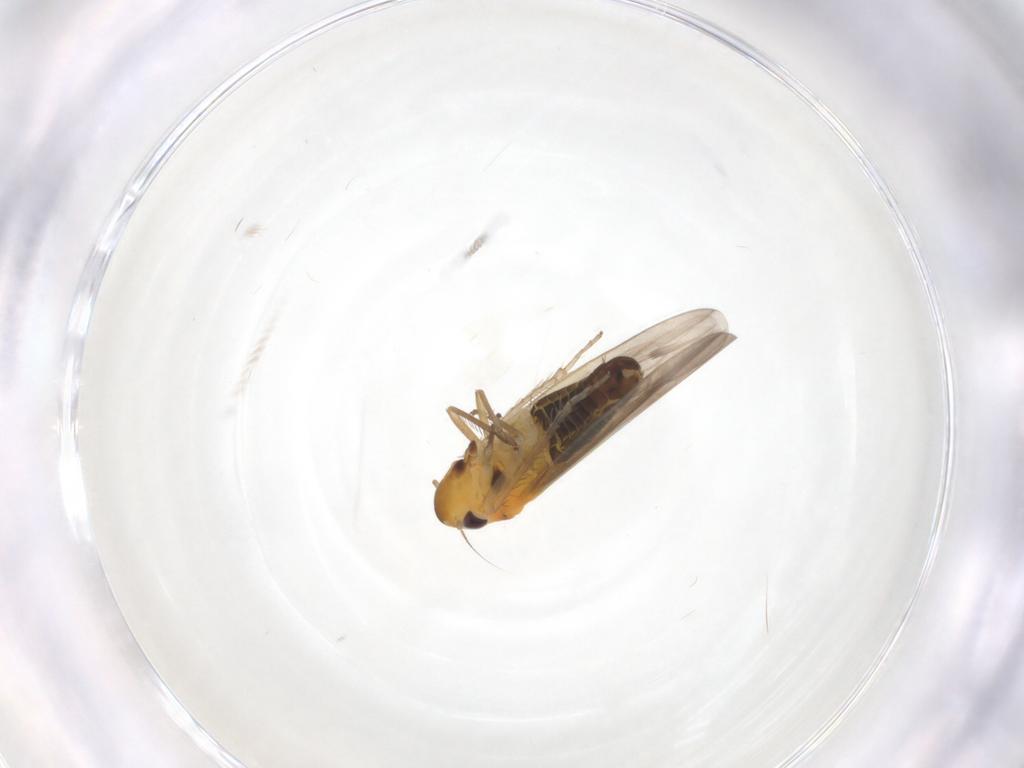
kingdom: Animalia
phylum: Arthropoda
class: Insecta
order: Hemiptera
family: Cicadellidae
